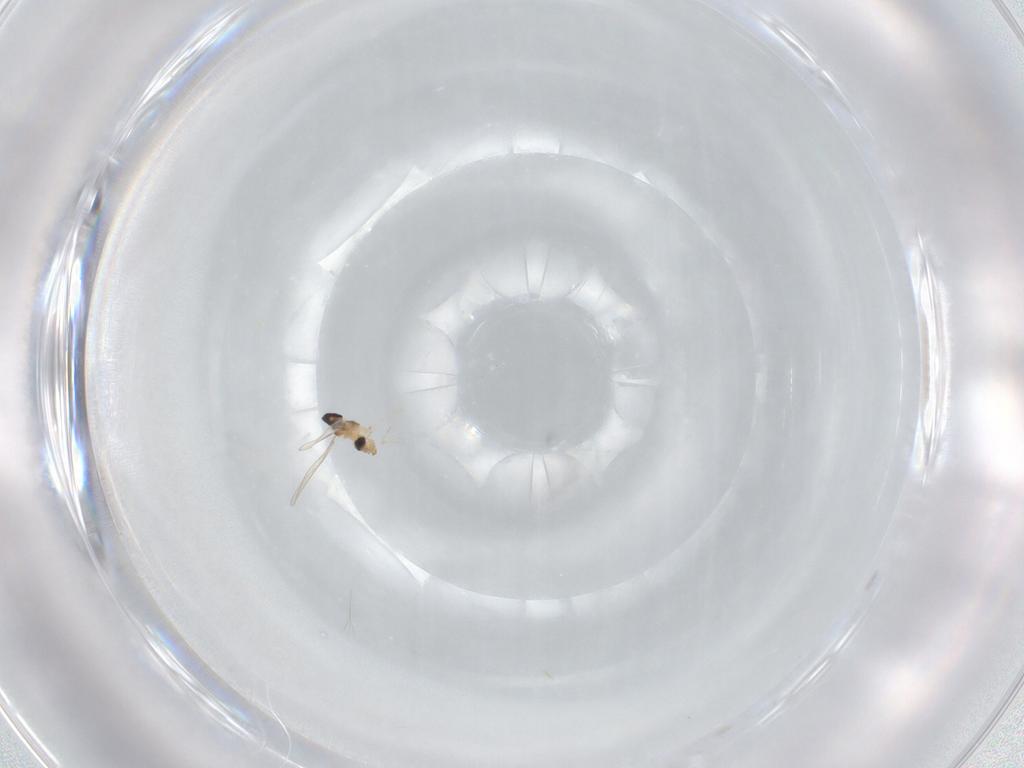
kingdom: Animalia
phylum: Arthropoda
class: Insecta
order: Diptera
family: Cecidomyiidae
